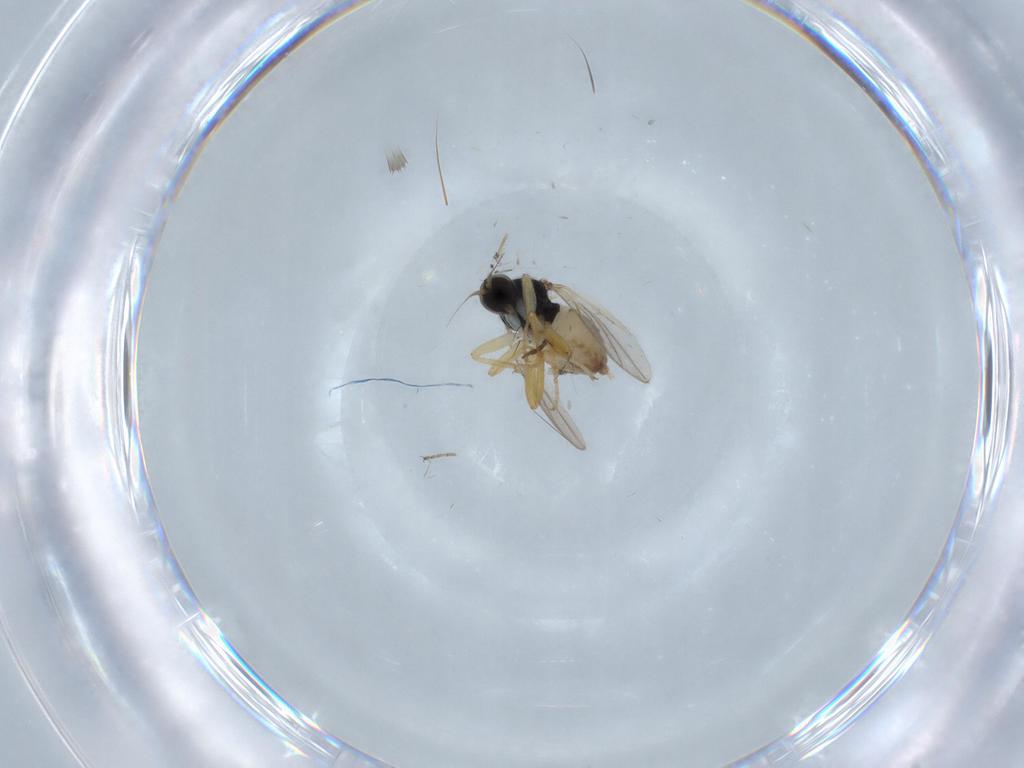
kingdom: Animalia
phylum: Arthropoda
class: Insecta
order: Diptera
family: Hybotidae
